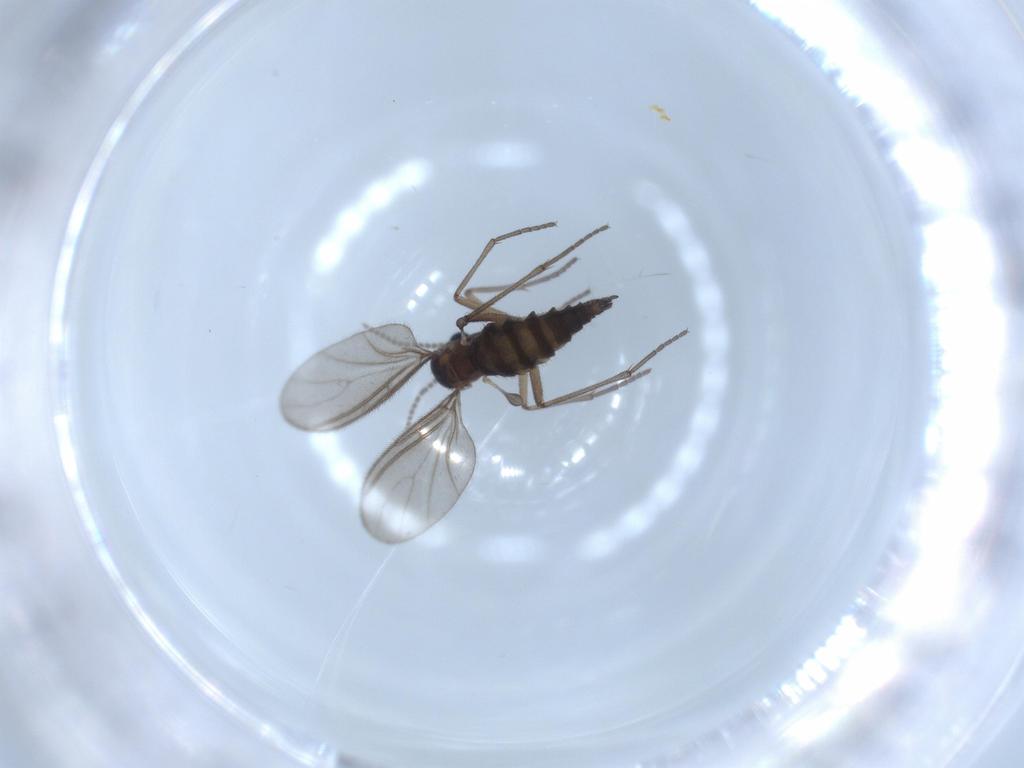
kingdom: Animalia
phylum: Arthropoda
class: Insecta
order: Diptera
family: Sciaridae
